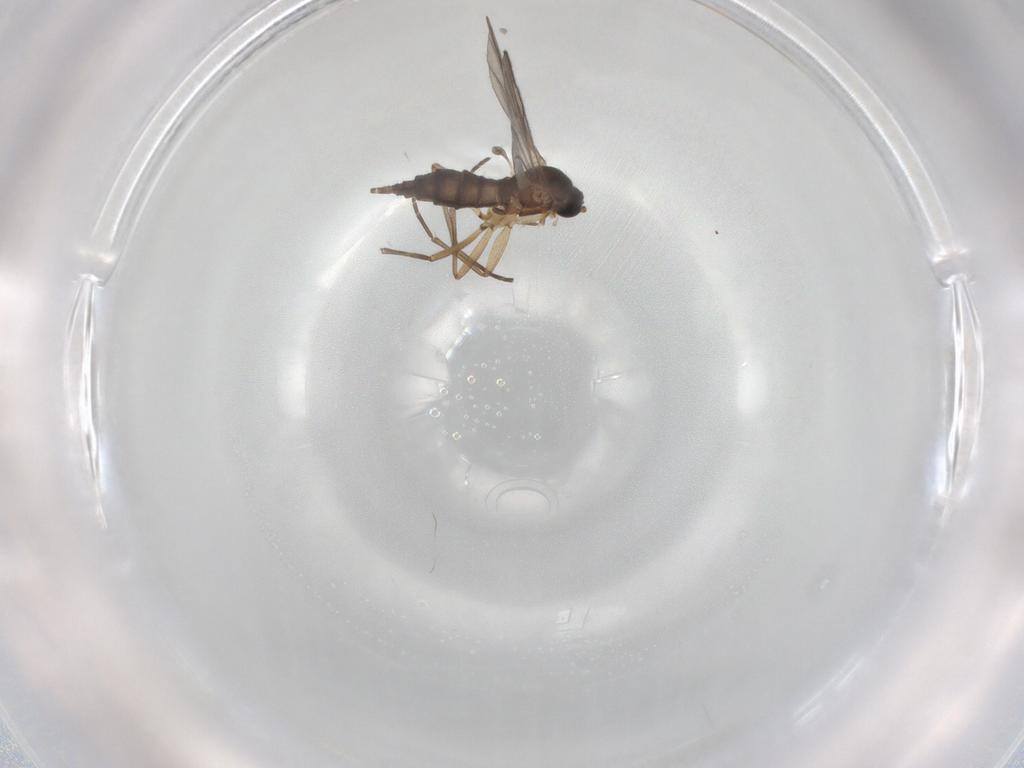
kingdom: Animalia
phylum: Arthropoda
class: Insecta
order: Diptera
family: Sciaridae
